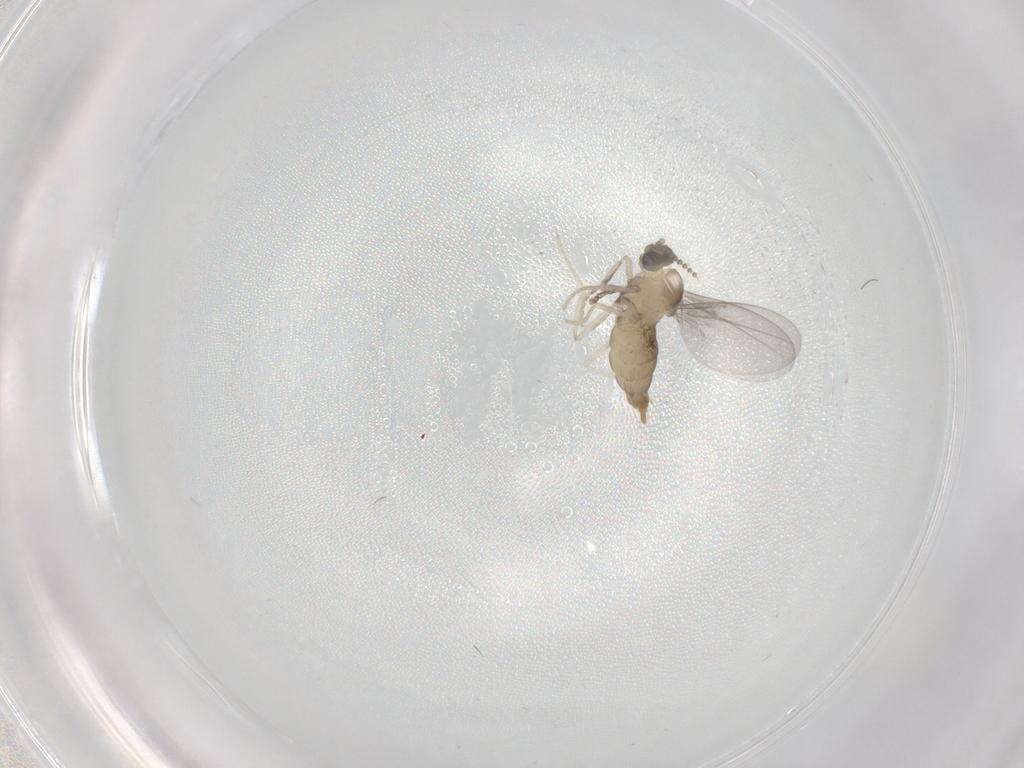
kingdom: Animalia
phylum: Arthropoda
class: Insecta
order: Diptera
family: Cecidomyiidae
